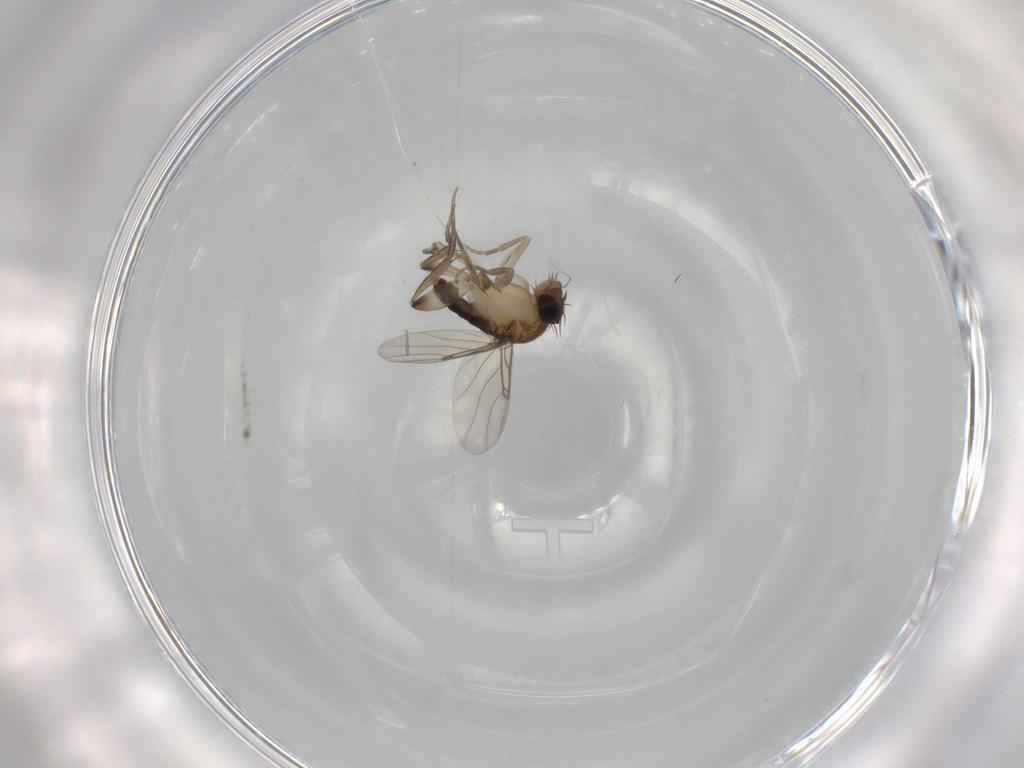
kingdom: Animalia
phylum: Arthropoda
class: Insecta
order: Diptera
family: Phoridae
